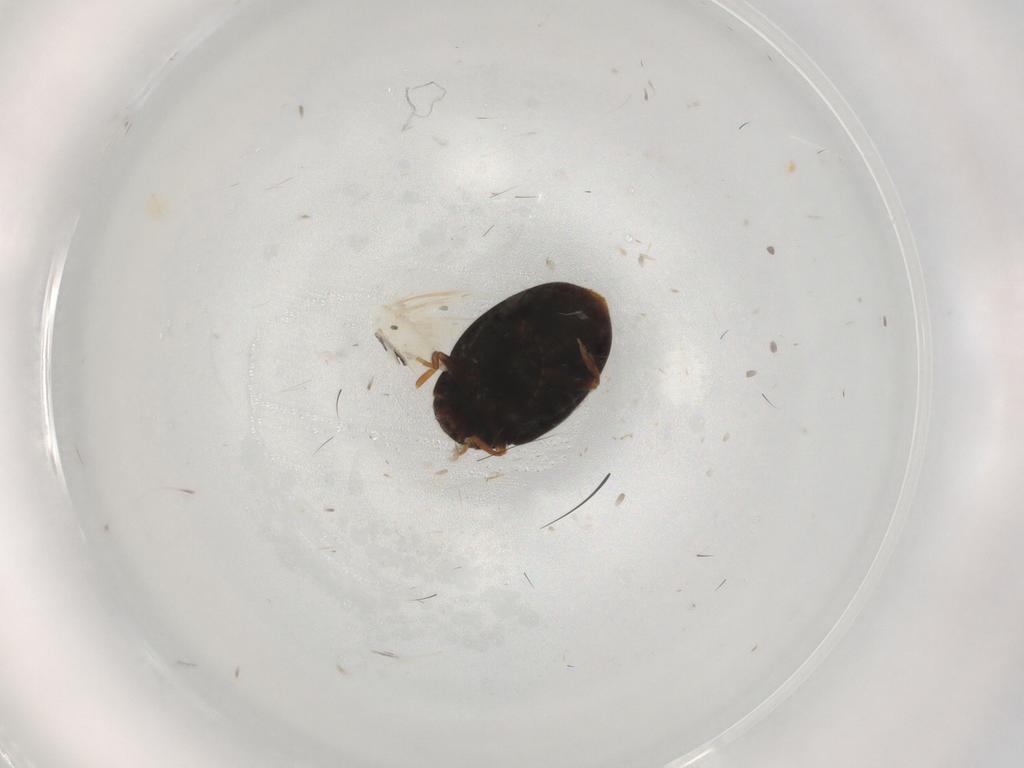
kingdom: Animalia
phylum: Arthropoda
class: Insecta
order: Coleoptera
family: Coccinellidae
